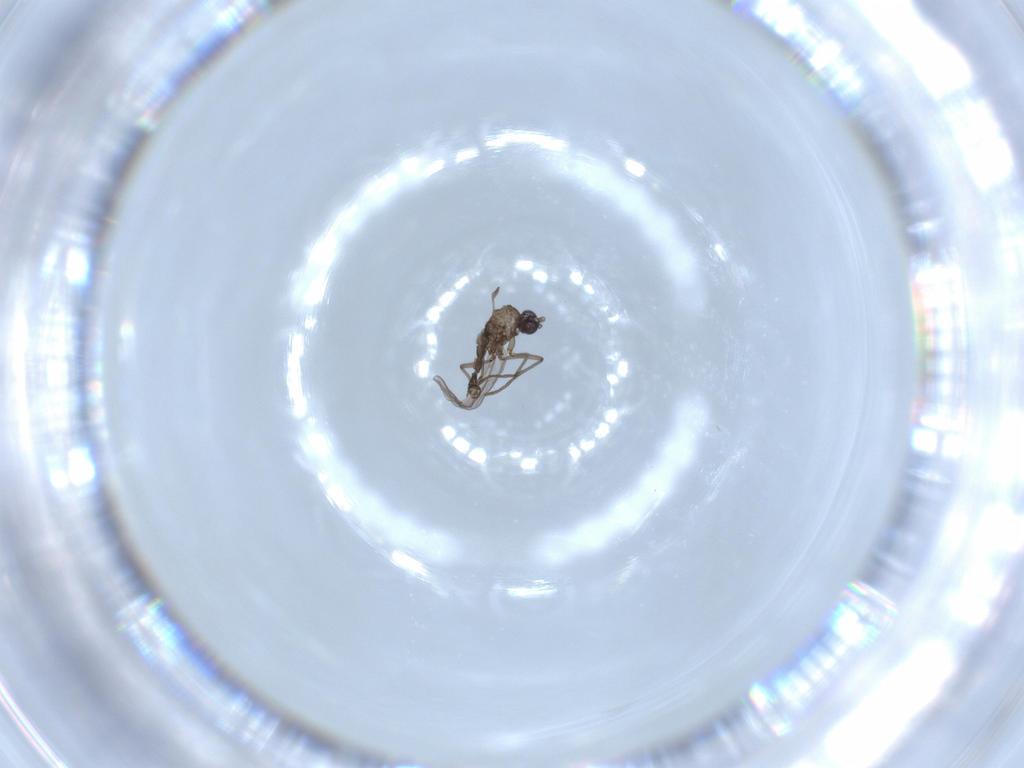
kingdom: Animalia
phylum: Arthropoda
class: Insecta
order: Diptera
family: Sciaridae
